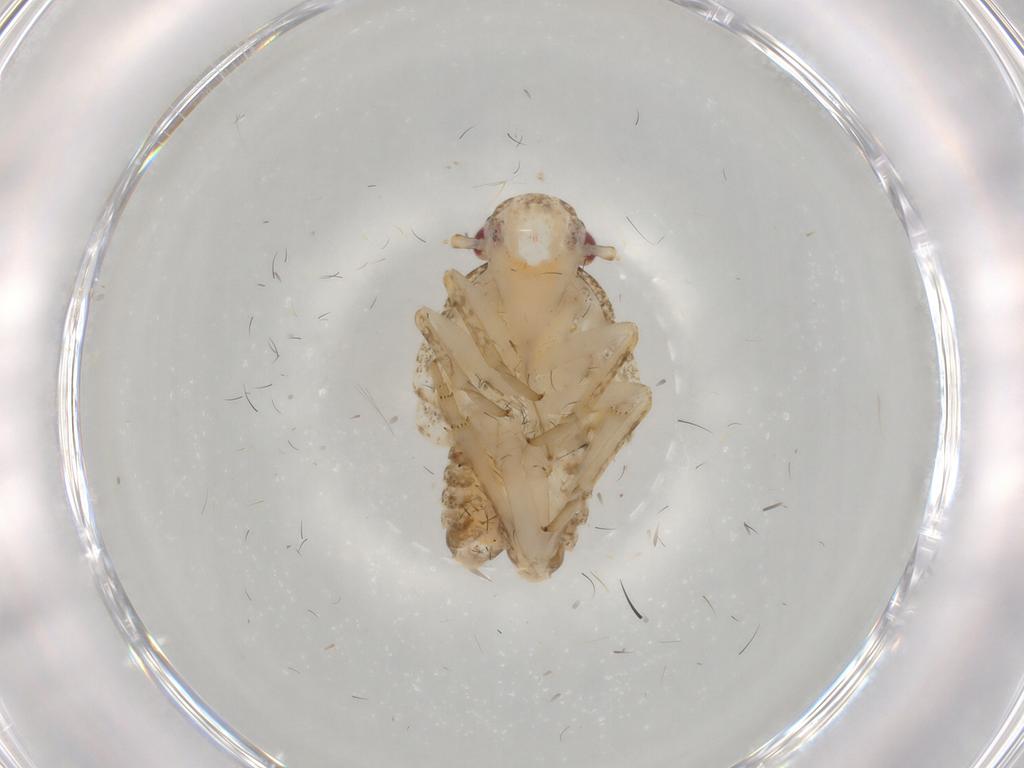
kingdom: Animalia
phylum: Arthropoda
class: Insecta
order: Hemiptera
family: Flatidae
